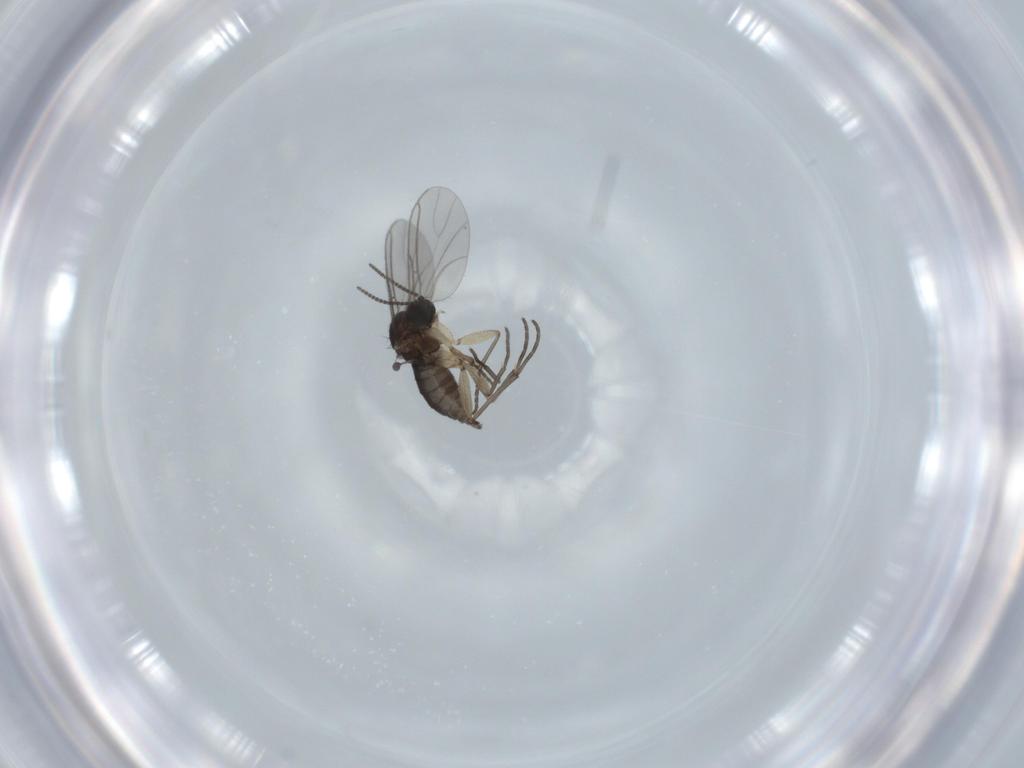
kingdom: Animalia
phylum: Arthropoda
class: Insecta
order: Diptera
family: Sciaridae
